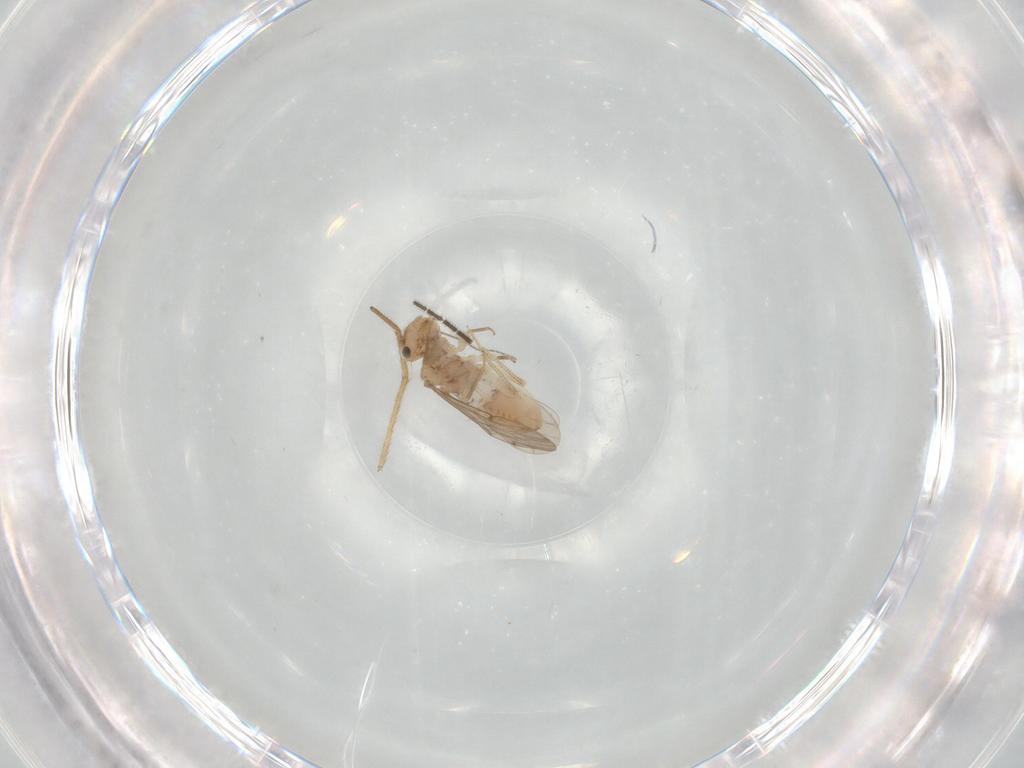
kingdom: Animalia
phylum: Arthropoda
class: Insecta
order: Psocodea
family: Ectopsocidae
